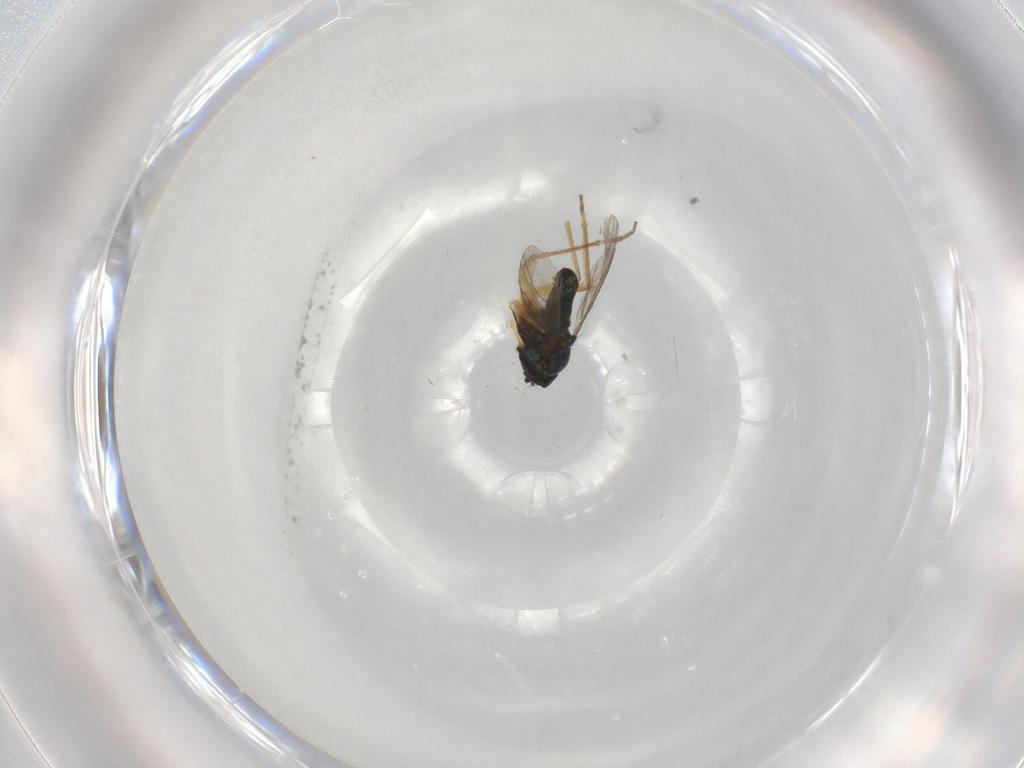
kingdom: Animalia
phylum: Arthropoda
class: Insecta
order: Diptera
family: Dolichopodidae
